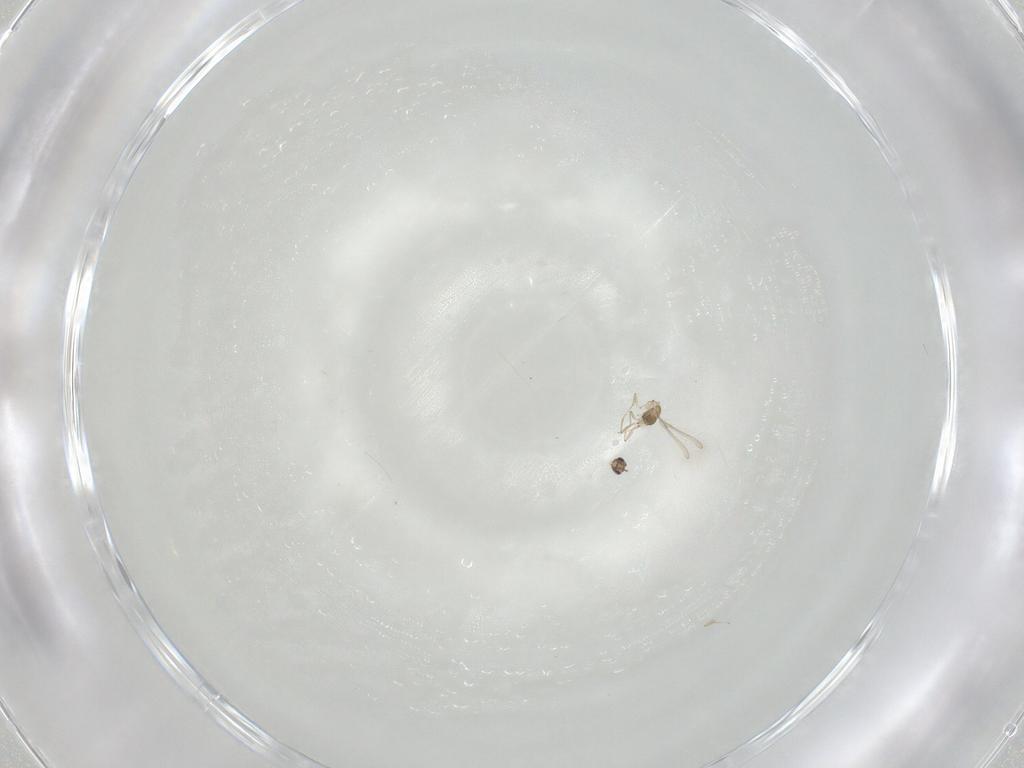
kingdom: Animalia
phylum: Arthropoda
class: Insecta
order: Hymenoptera
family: Mymaridae
